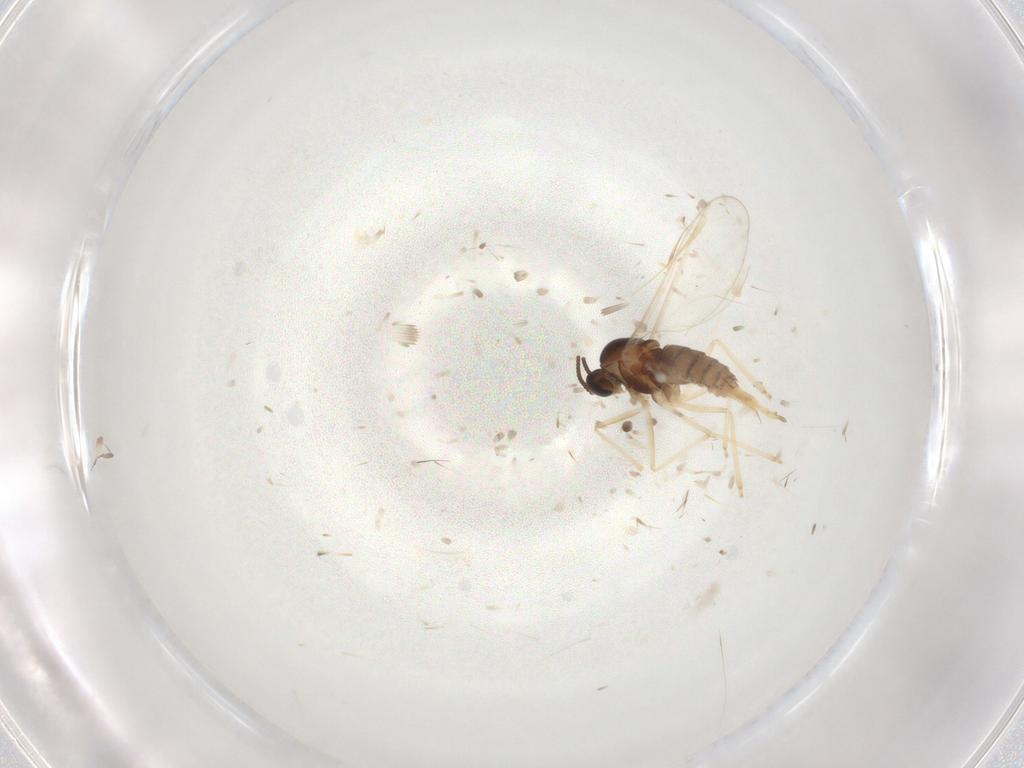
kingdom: Animalia
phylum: Arthropoda
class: Insecta
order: Diptera
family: Cecidomyiidae
